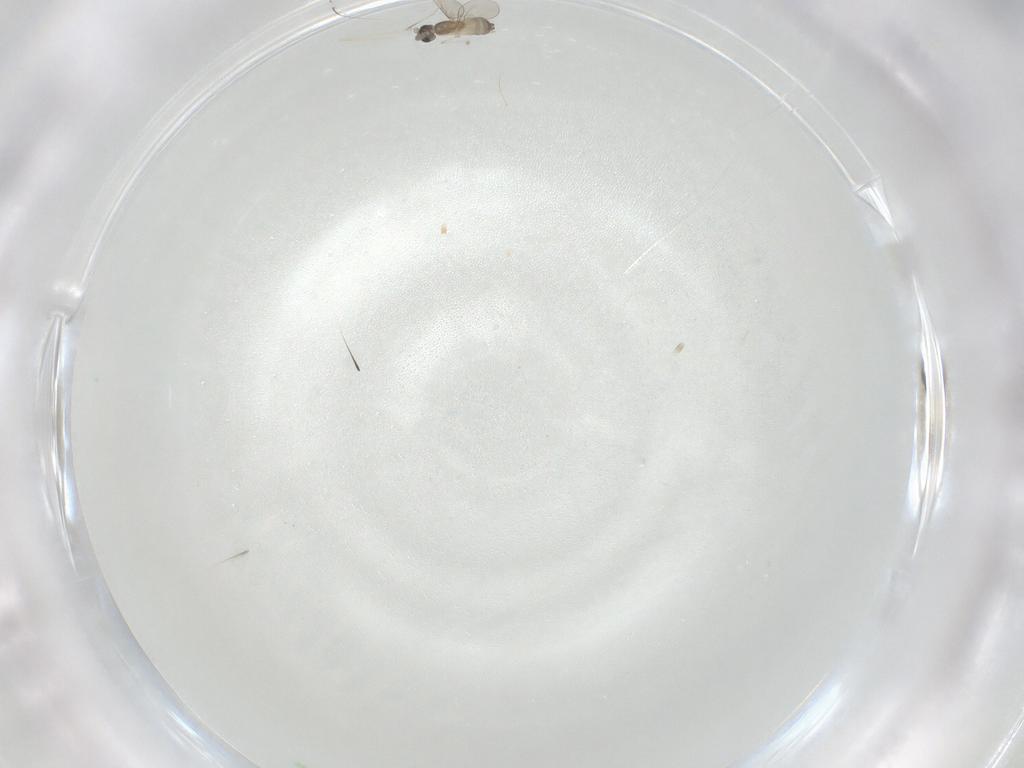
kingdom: Animalia
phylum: Arthropoda
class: Insecta
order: Diptera
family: Cecidomyiidae
